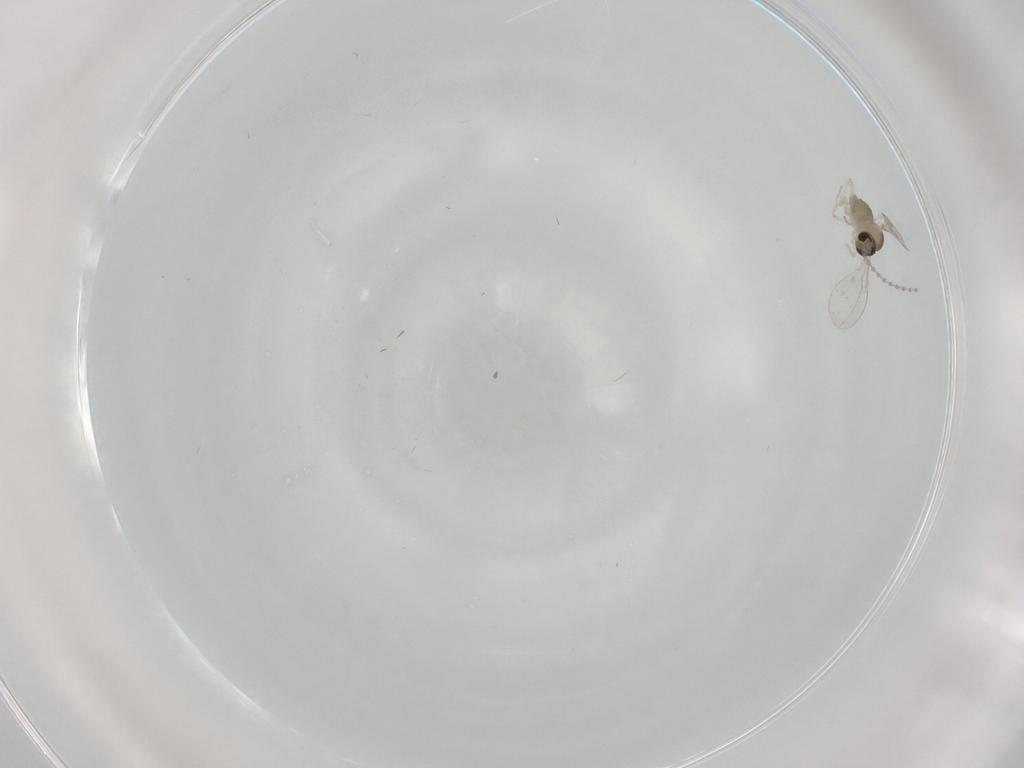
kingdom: Animalia
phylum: Arthropoda
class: Insecta
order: Diptera
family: Cecidomyiidae
